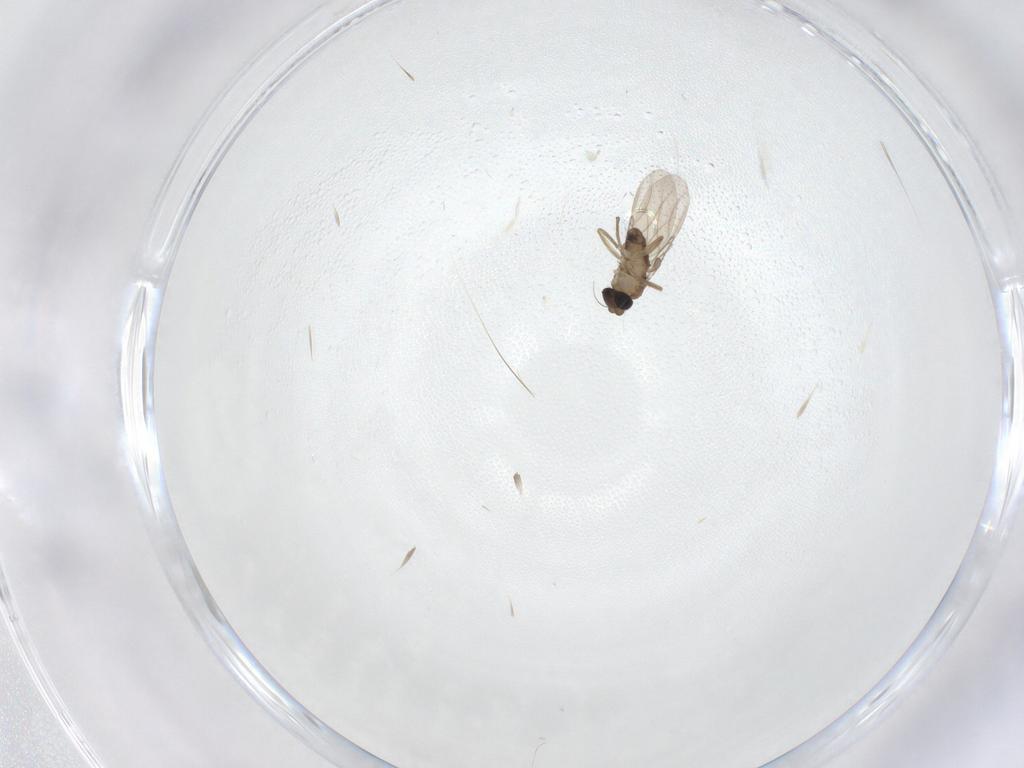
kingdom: Animalia
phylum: Arthropoda
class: Insecta
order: Diptera
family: Phoridae
